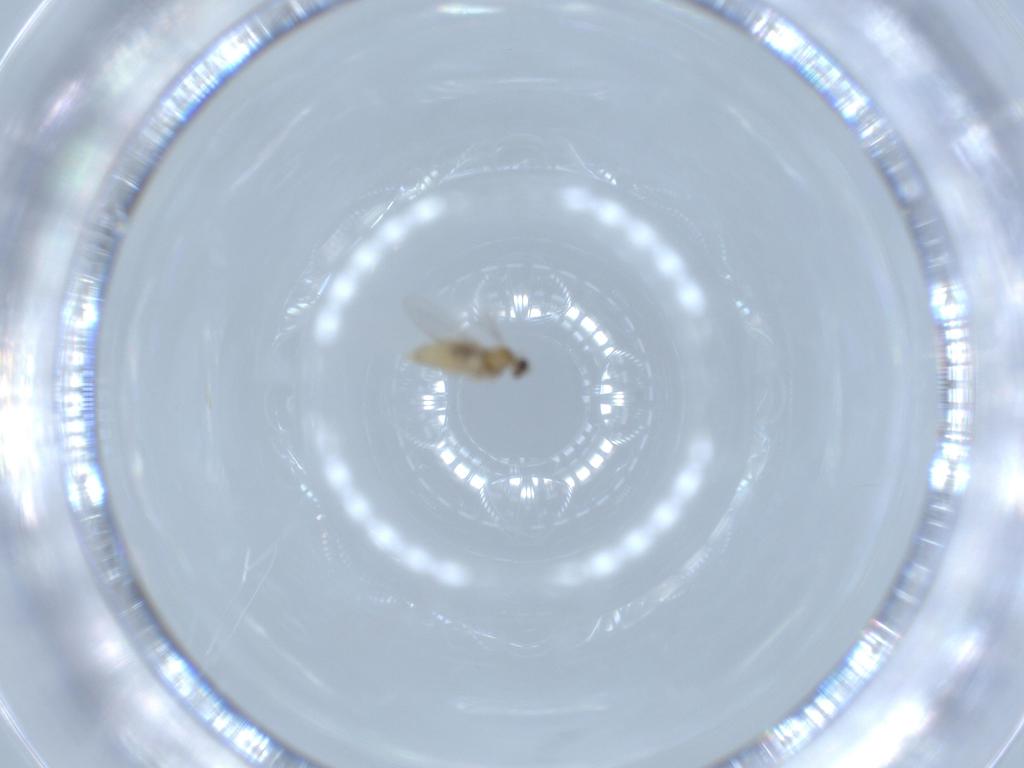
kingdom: Animalia
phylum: Arthropoda
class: Insecta
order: Diptera
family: Cecidomyiidae
